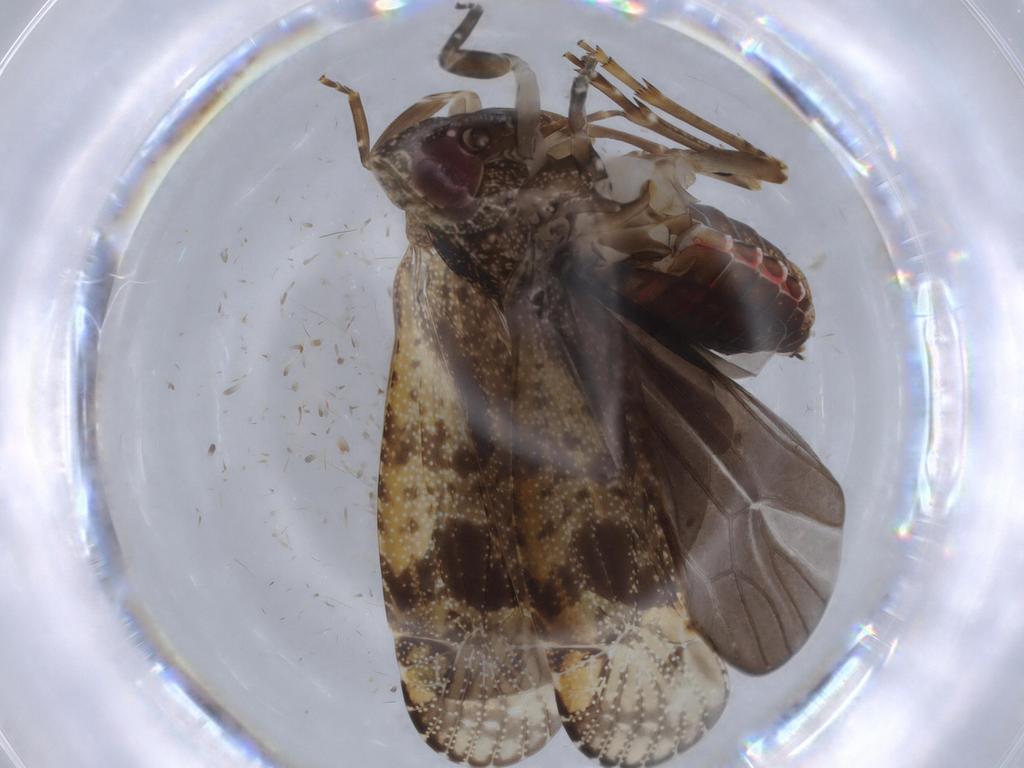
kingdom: Animalia
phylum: Arthropoda
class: Insecta
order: Hemiptera
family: Achilidae
